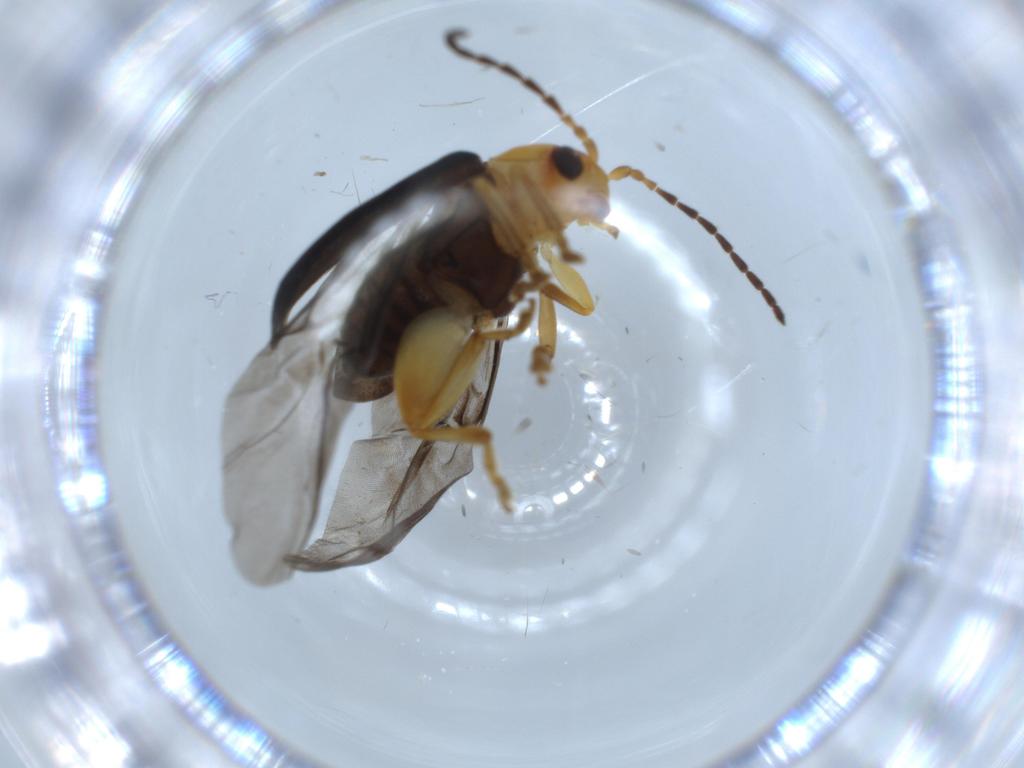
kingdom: Animalia
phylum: Arthropoda
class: Insecta
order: Coleoptera
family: Chrysomelidae
